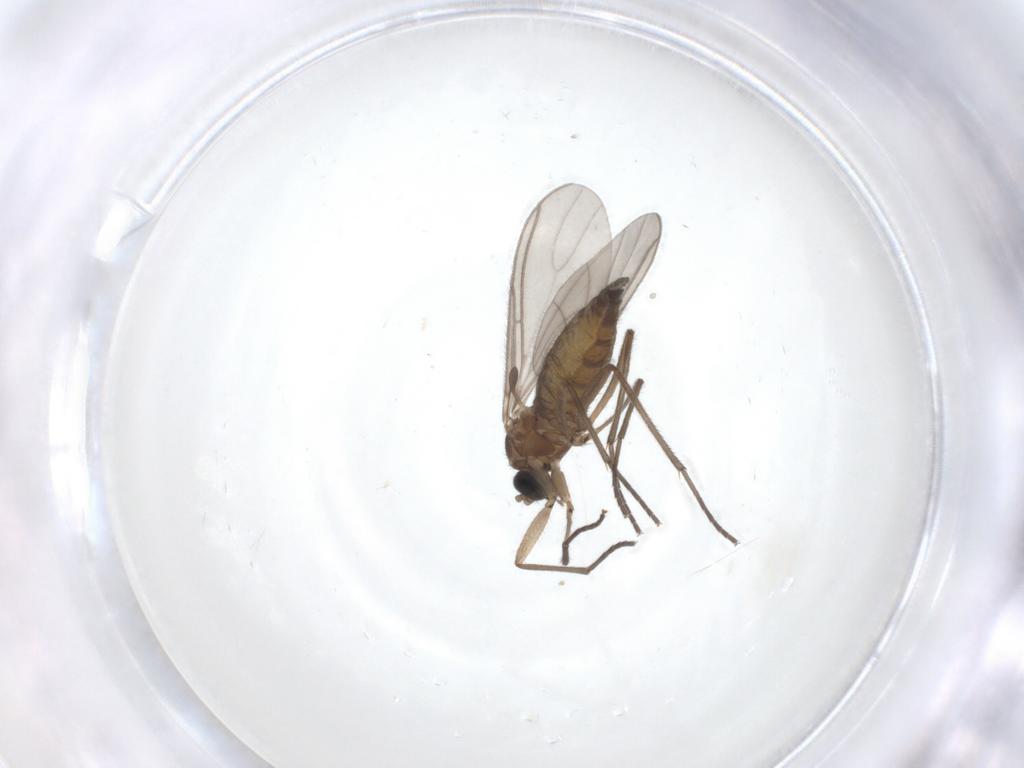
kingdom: Animalia
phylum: Arthropoda
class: Insecta
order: Diptera
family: Sciaridae
